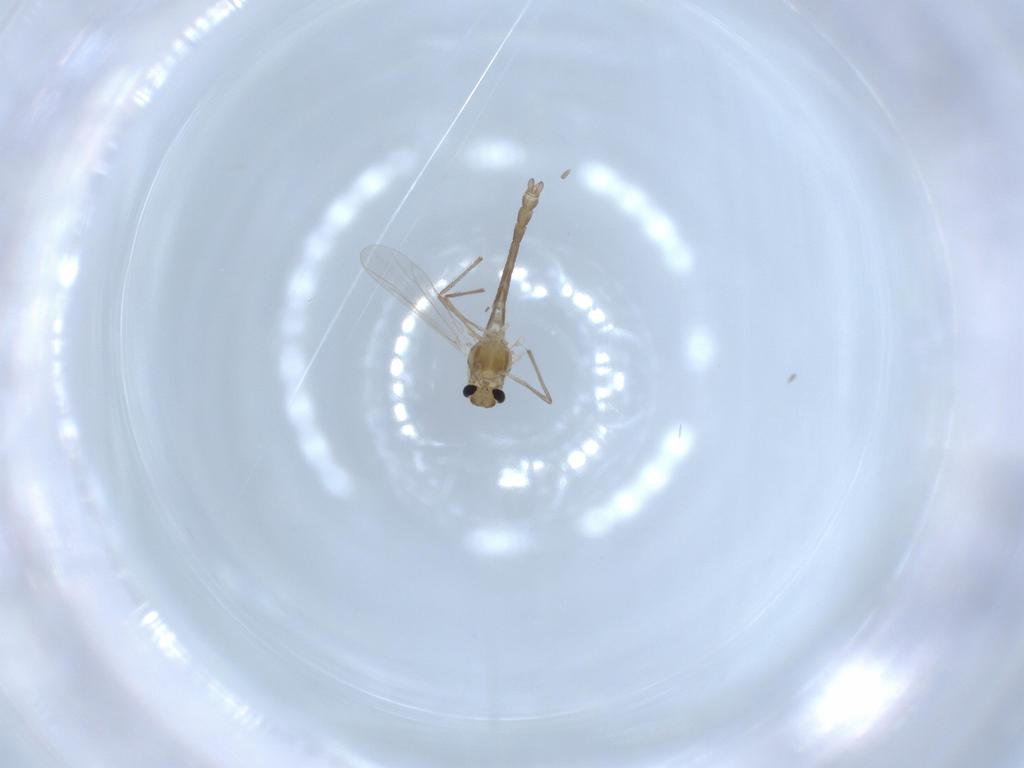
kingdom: Animalia
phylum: Arthropoda
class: Insecta
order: Diptera
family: Chironomidae
